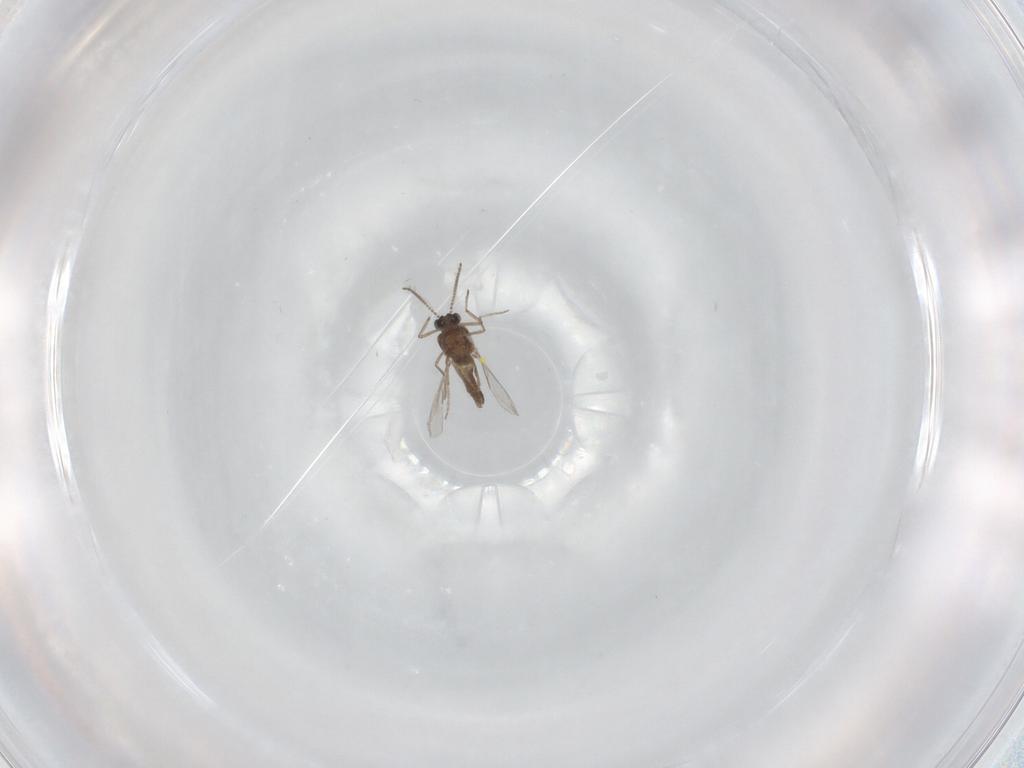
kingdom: Animalia
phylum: Arthropoda
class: Insecta
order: Diptera
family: Ceratopogonidae
